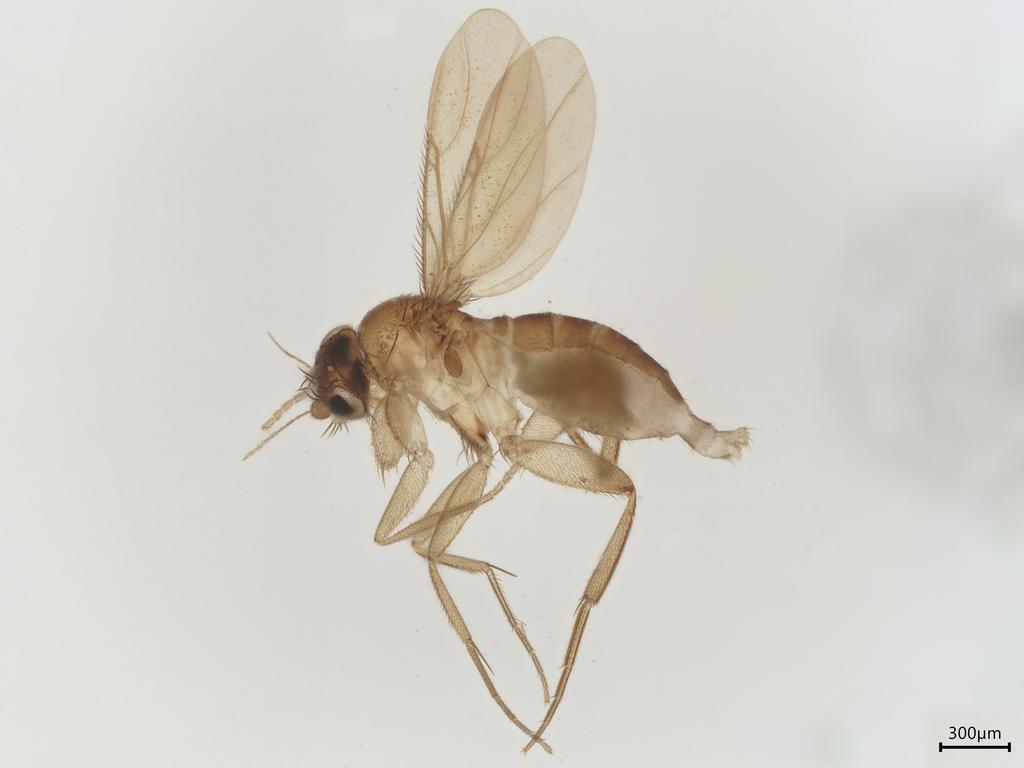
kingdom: Animalia
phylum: Arthropoda
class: Insecta
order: Diptera
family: Phoridae
